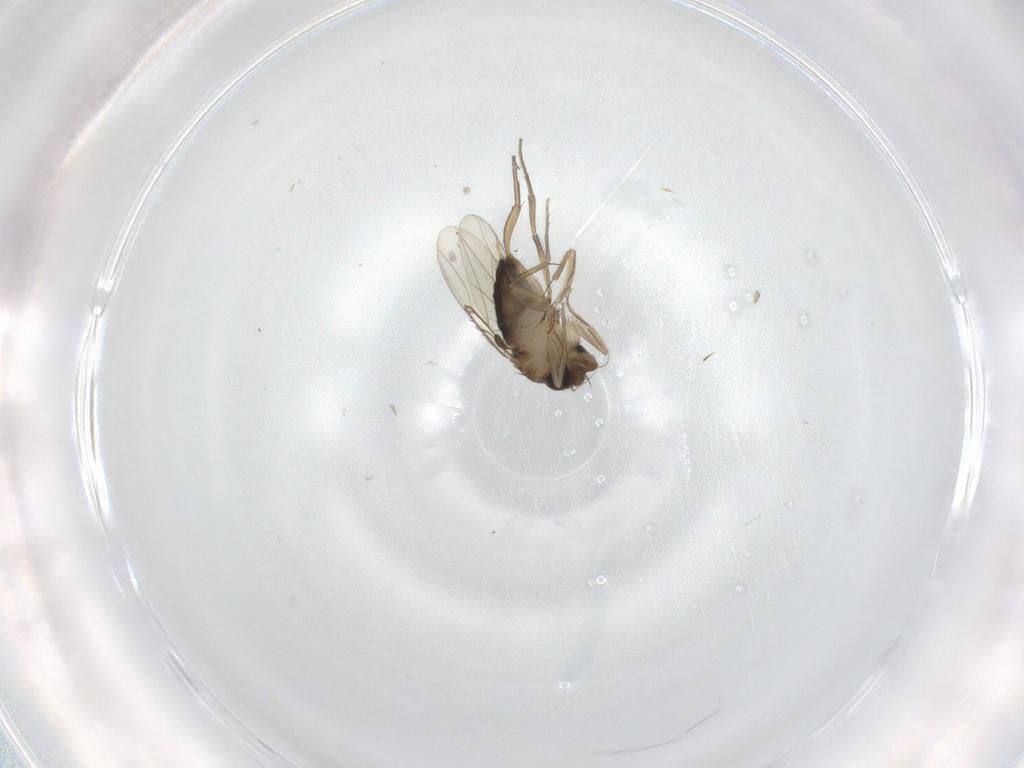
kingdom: Animalia
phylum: Arthropoda
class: Insecta
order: Diptera
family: Phoridae
